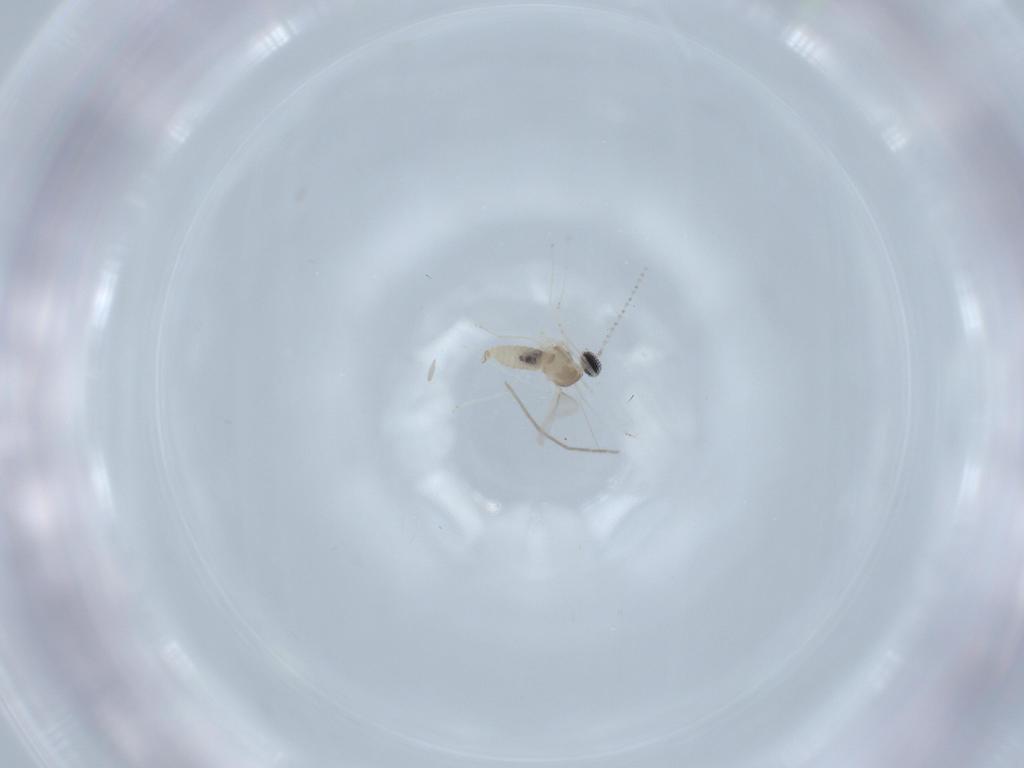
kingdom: Animalia
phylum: Arthropoda
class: Insecta
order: Diptera
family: Cecidomyiidae
